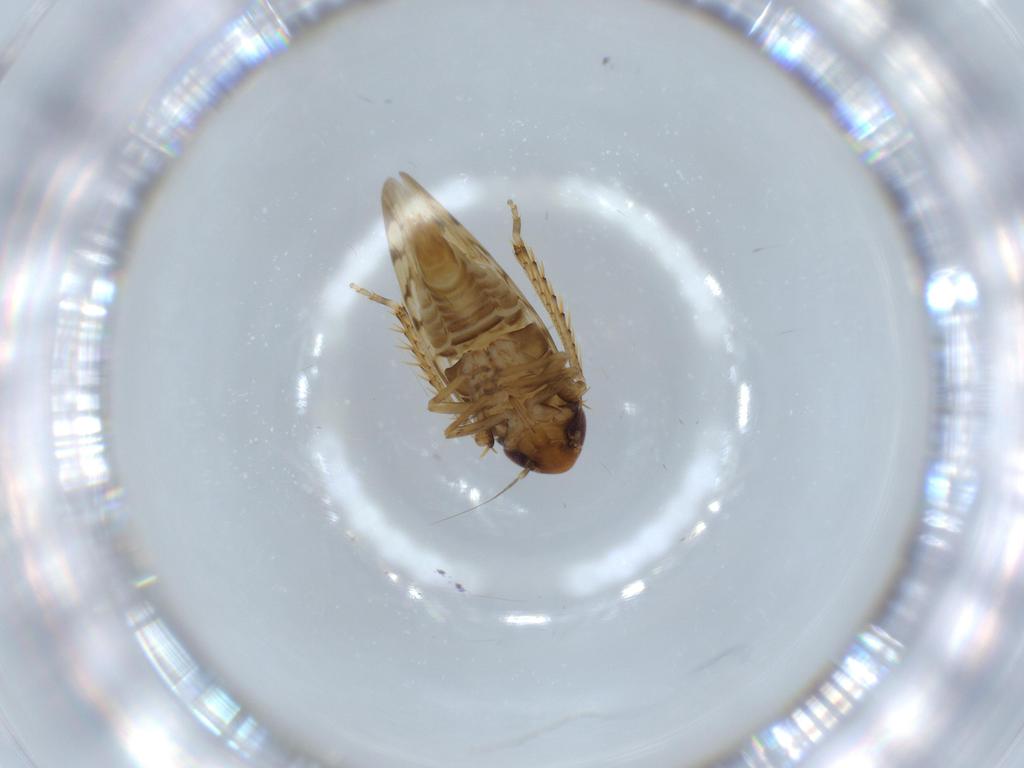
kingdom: Animalia
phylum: Arthropoda
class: Insecta
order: Hemiptera
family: Cicadellidae
